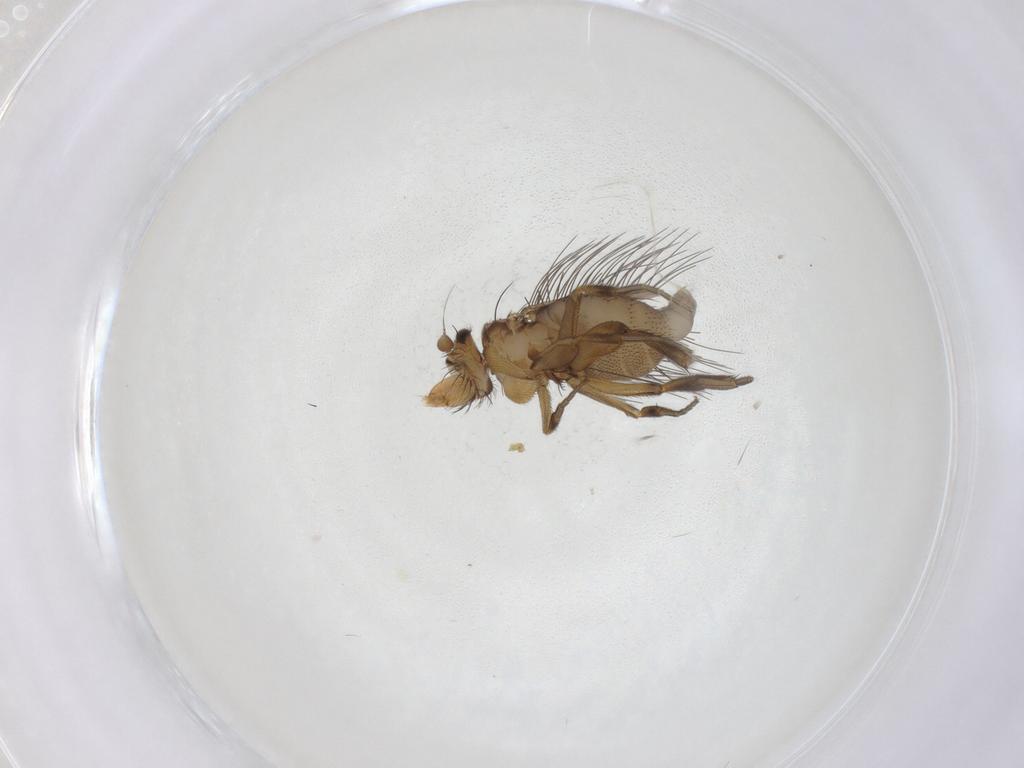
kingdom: Animalia
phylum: Arthropoda
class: Insecta
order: Diptera
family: Phoridae
